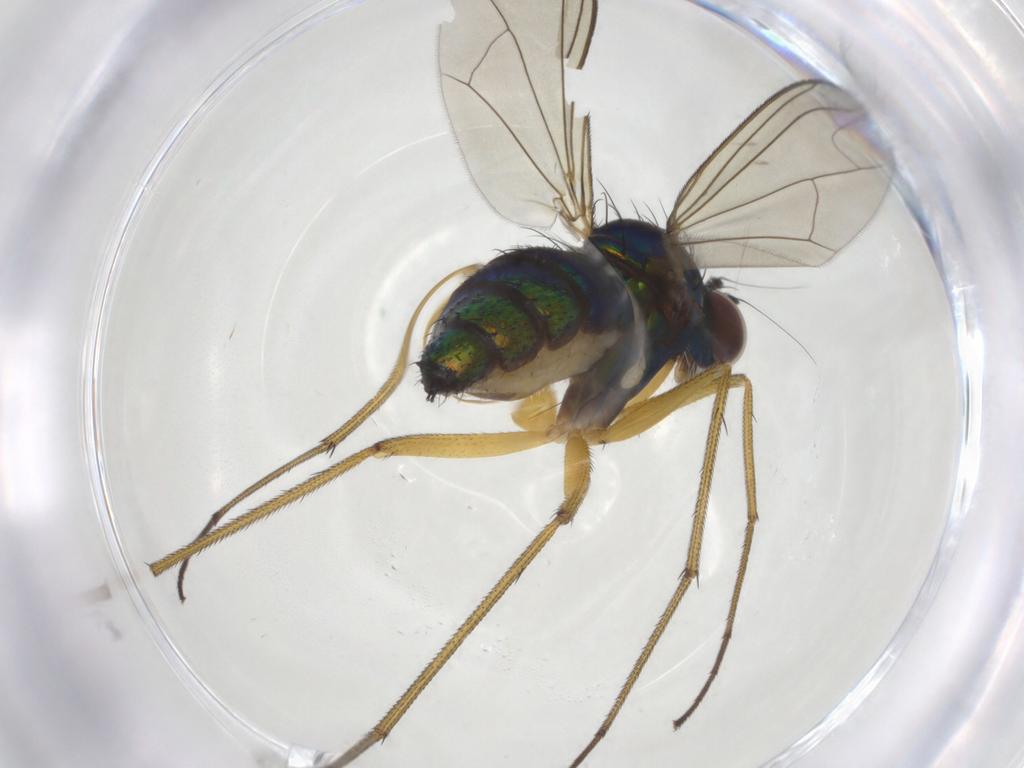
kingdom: Animalia
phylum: Arthropoda
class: Insecta
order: Diptera
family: Dolichopodidae
